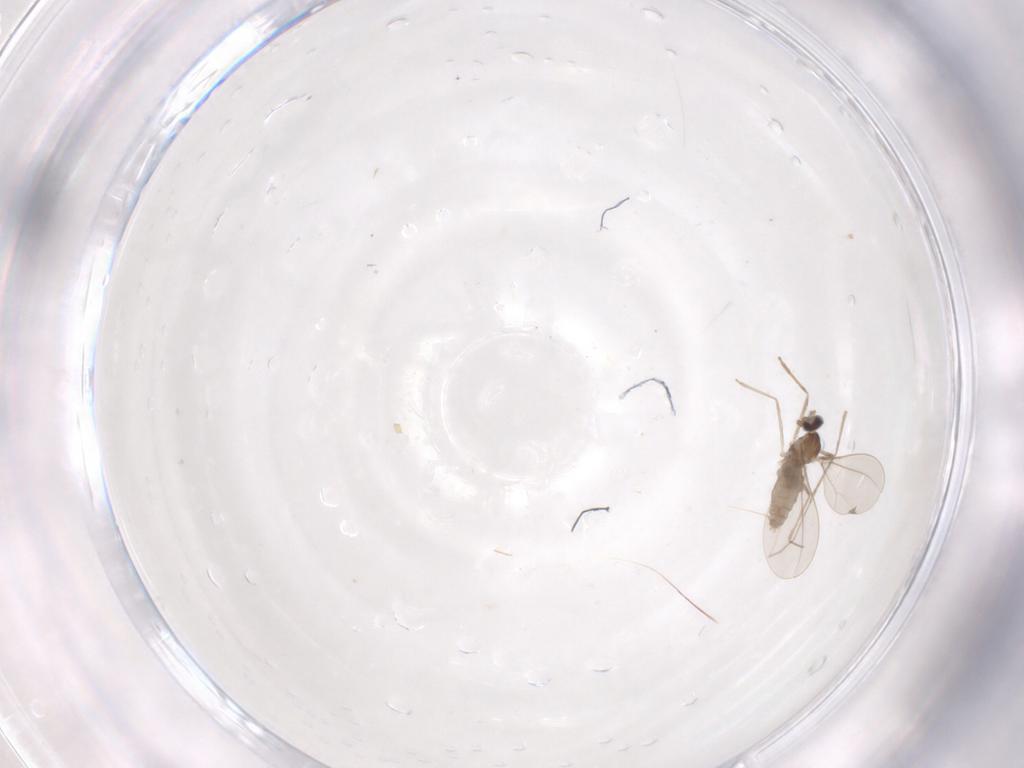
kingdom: Animalia
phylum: Arthropoda
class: Insecta
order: Diptera
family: Cecidomyiidae
